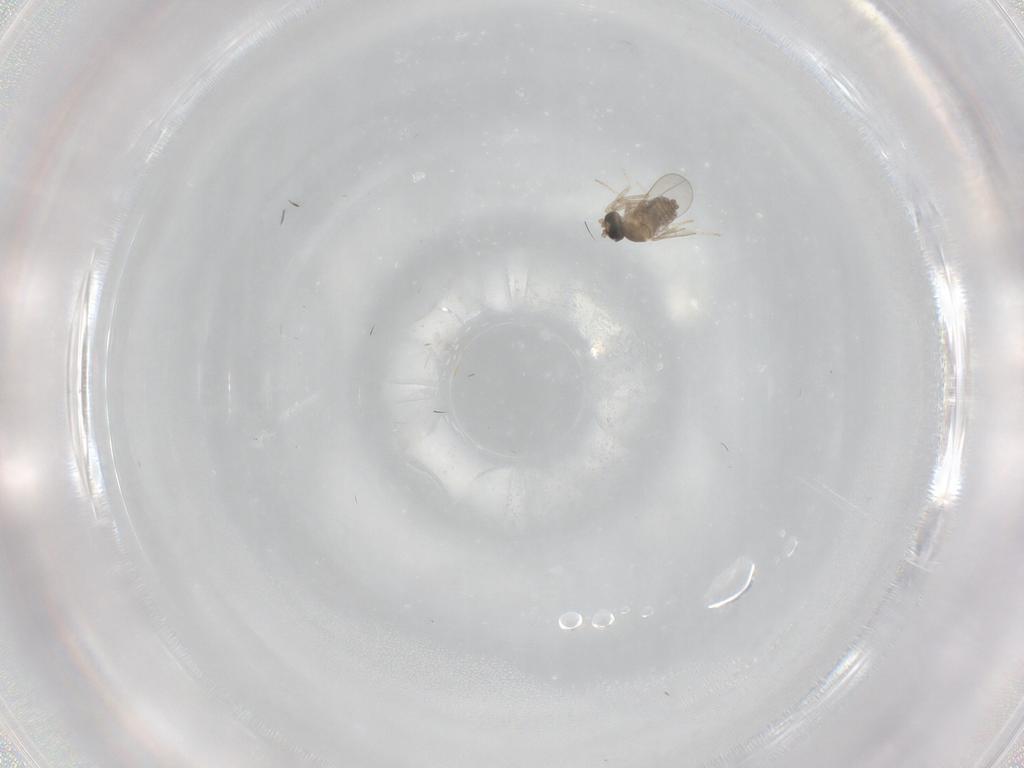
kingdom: Animalia
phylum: Arthropoda
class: Insecta
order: Diptera
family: Cecidomyiidae
